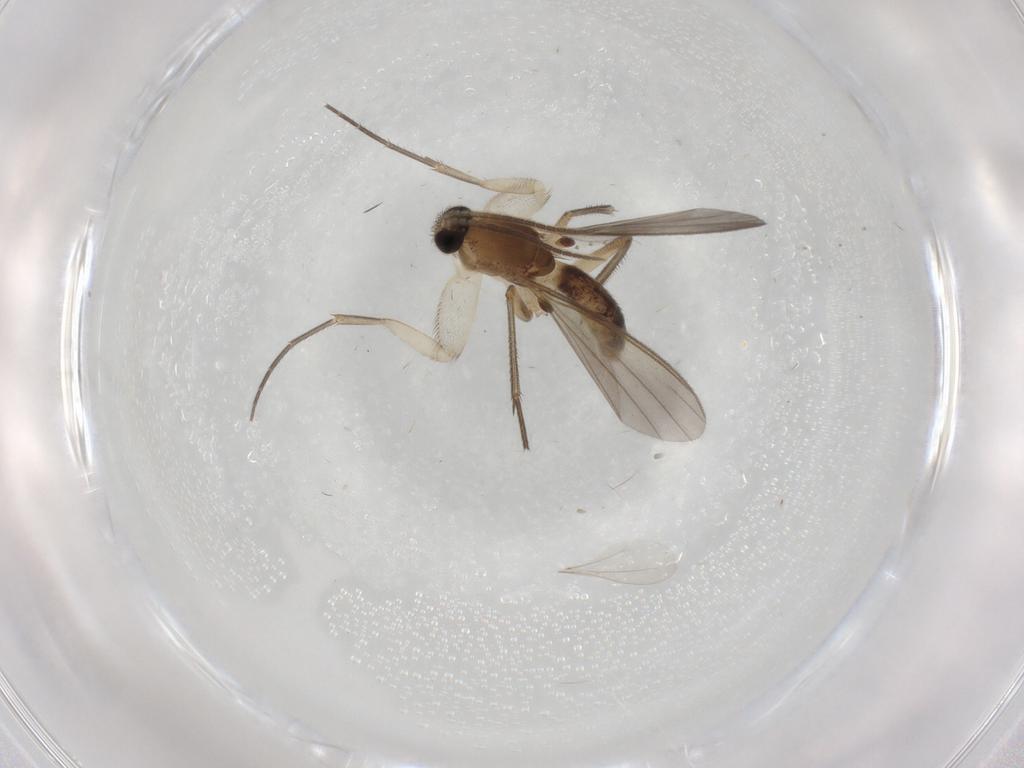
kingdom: Animalia
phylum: Arthropoda
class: Insecta
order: Diptera
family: Mycetophilidae
